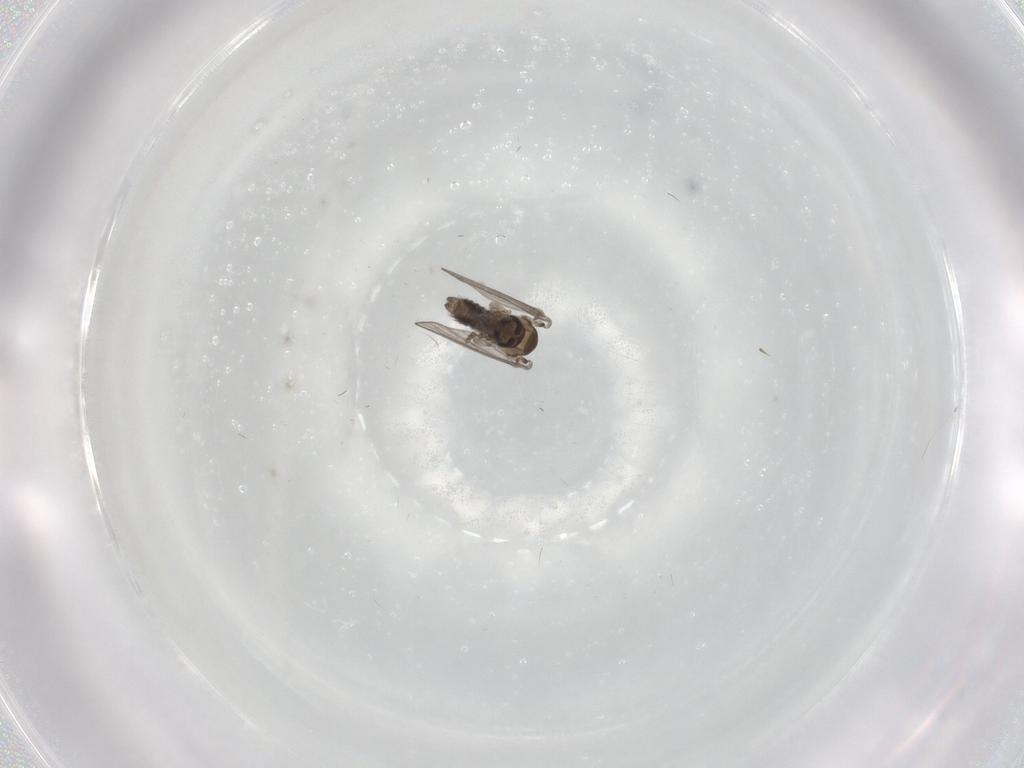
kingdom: Animalia
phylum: Arthropoda
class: Insecta
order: Diptera
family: Psychodidae
